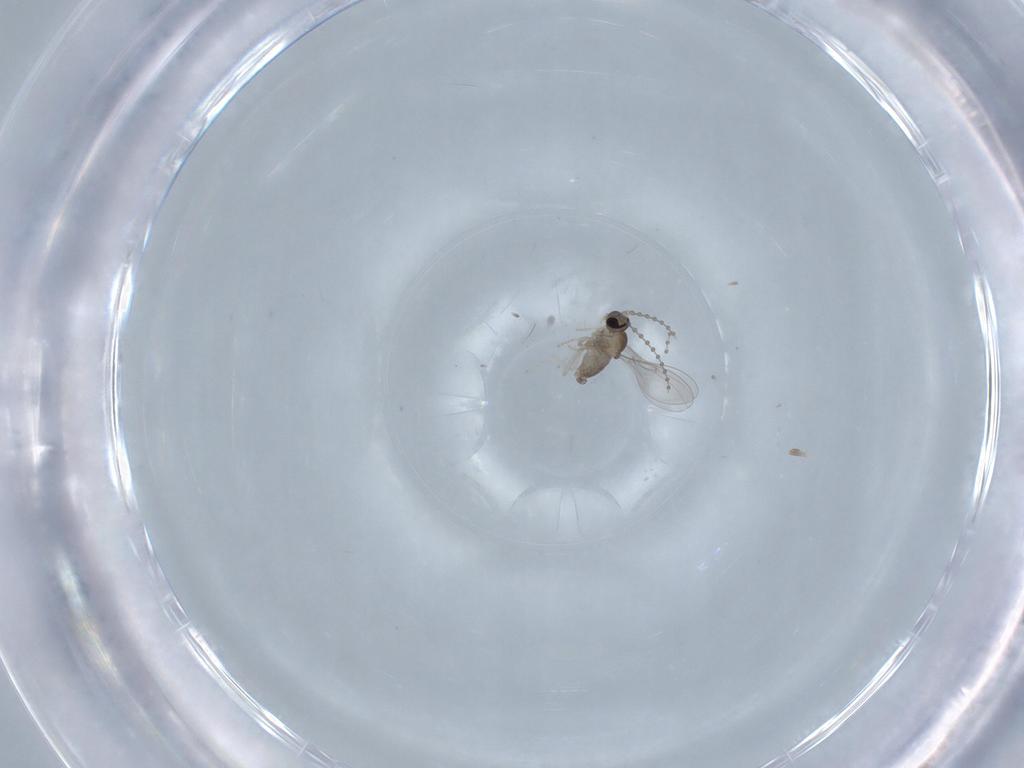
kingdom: Animalia
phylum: Arthropoda
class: Insecta
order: Diptera
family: Cecidomyiidae
